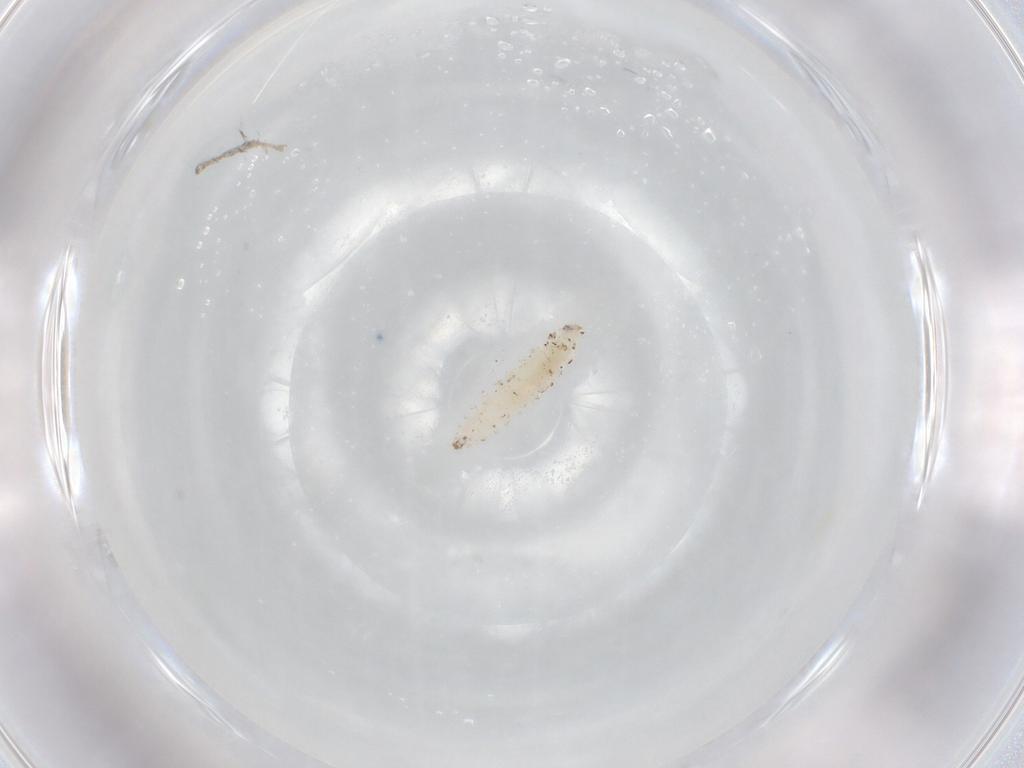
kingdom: Animalia
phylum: Arthropoda
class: Insecta
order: Diptera
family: Cecidomyiidae
